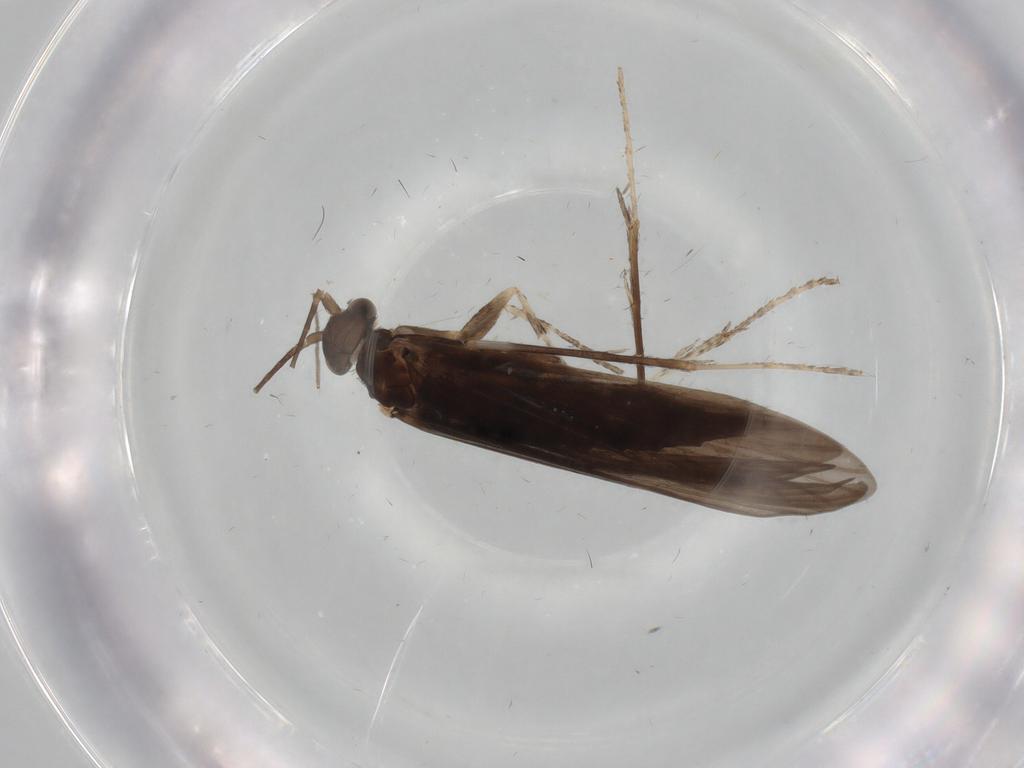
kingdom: Animalia
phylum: Arthropoda
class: Insecta
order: Trichoptera
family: Xiphocentronidae
